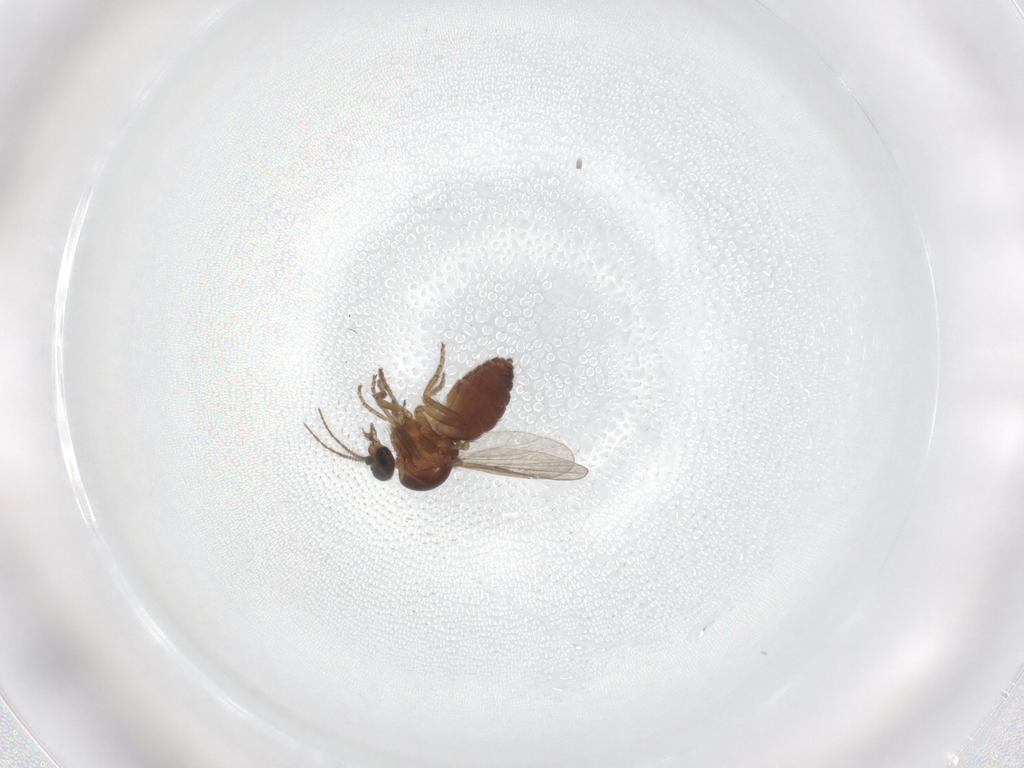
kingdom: Animalia
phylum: Arthropoda
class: Insecta
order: Diptera
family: Ceratopogonidae
